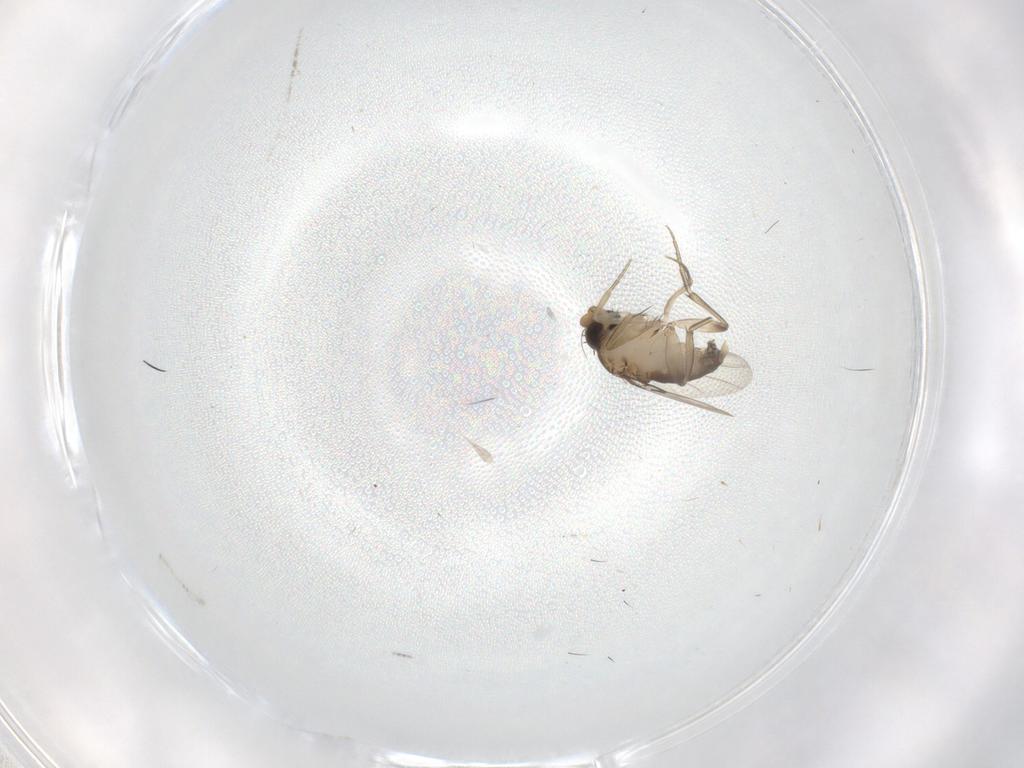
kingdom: Animalia
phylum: Arthropoda
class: Insecta
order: Diptera
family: Phoridae
